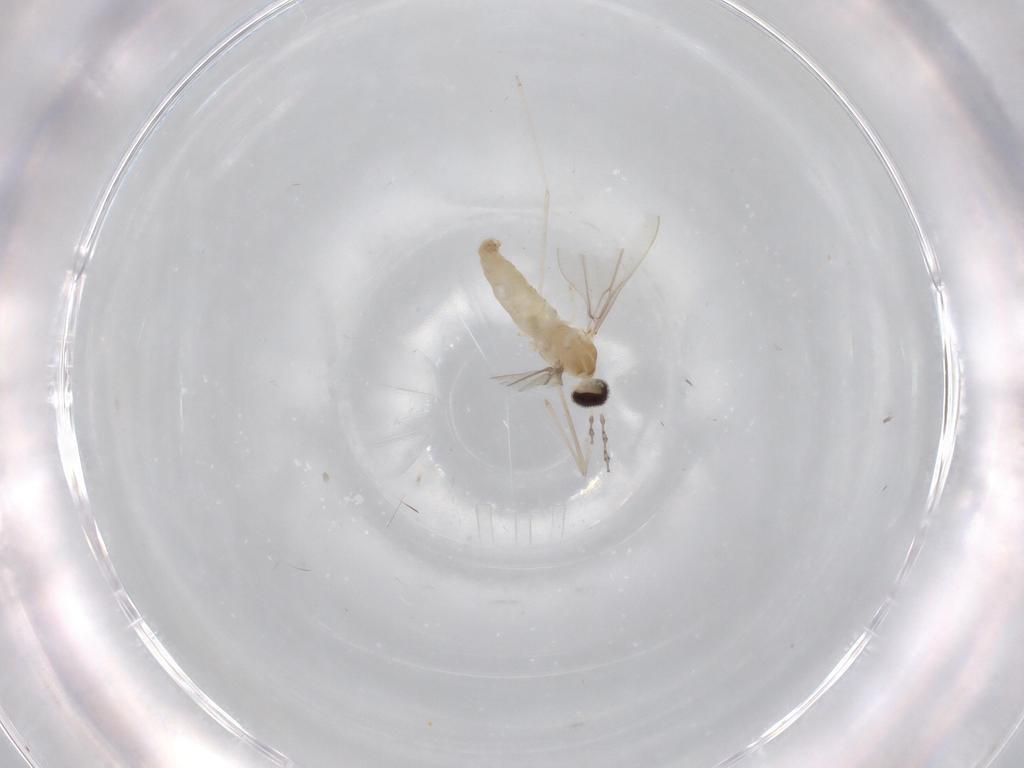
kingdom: Animalia
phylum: Arthropoda
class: Insecta
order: Diptera
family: Cecidomyiidae
